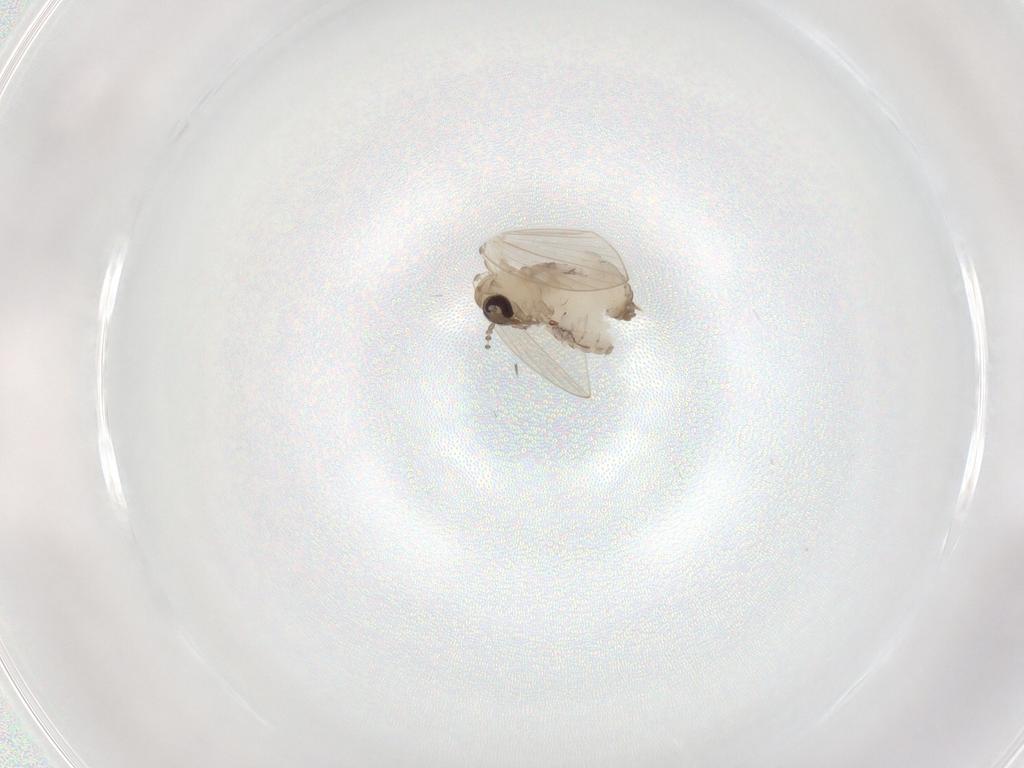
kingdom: Animalia
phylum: Arthropoda
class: Insecta
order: Diptera
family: Psychodidae
